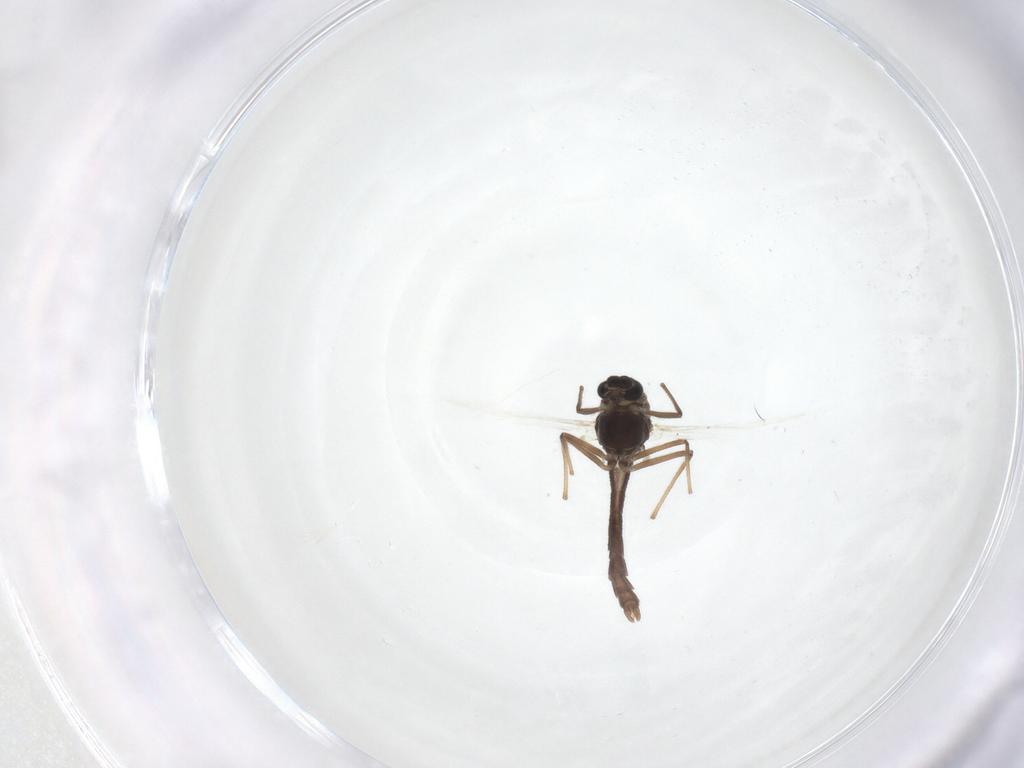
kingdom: Animalia
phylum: Arthropoda
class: Insecta
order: Diptera
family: Chironomidae
